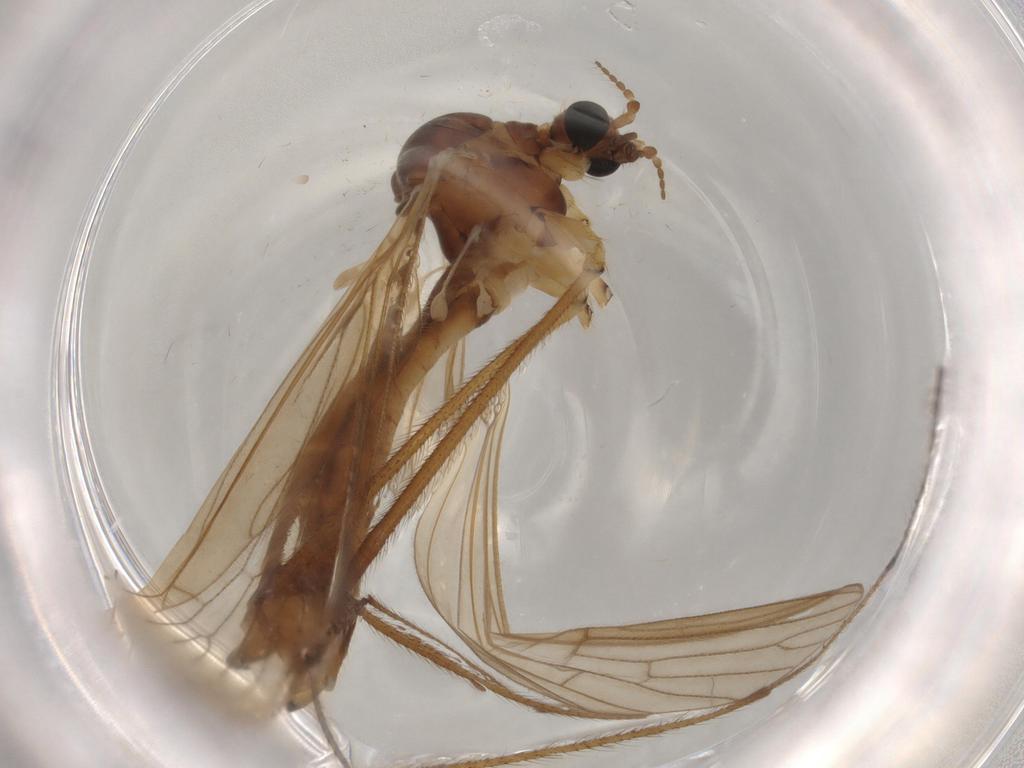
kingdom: Animalia
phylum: Arthropoda
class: Insecta
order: Diptera
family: Limoniidae
